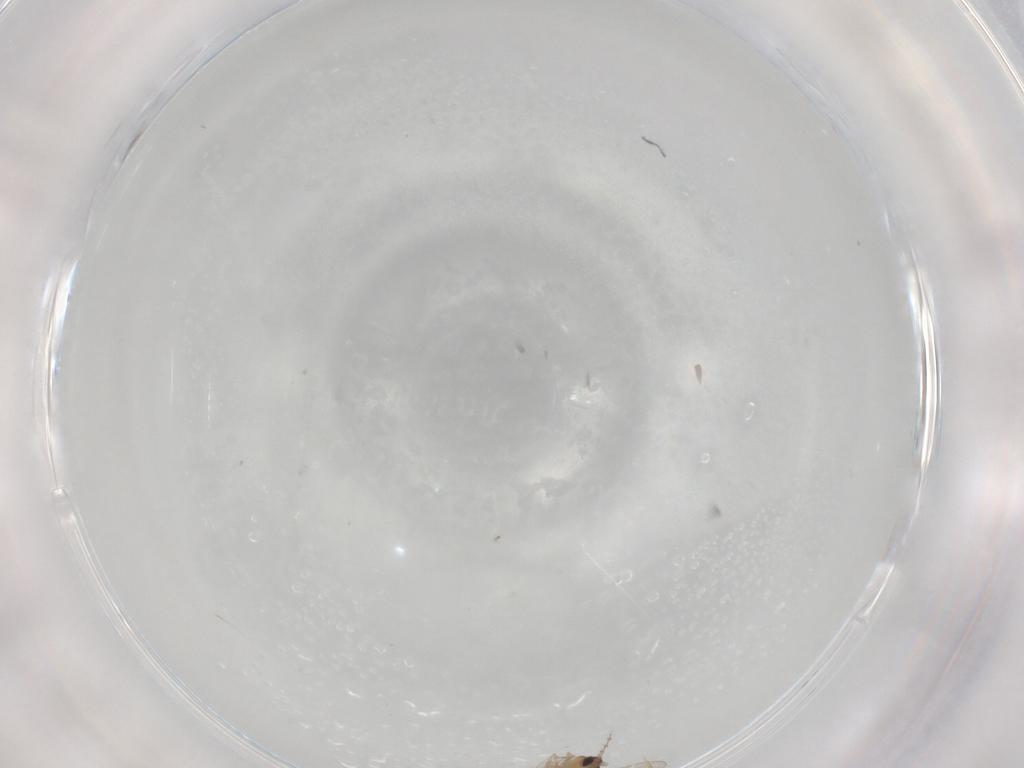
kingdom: Animalia
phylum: Arthropoda
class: Insecta
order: Diptera
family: Cecidomyiidae
